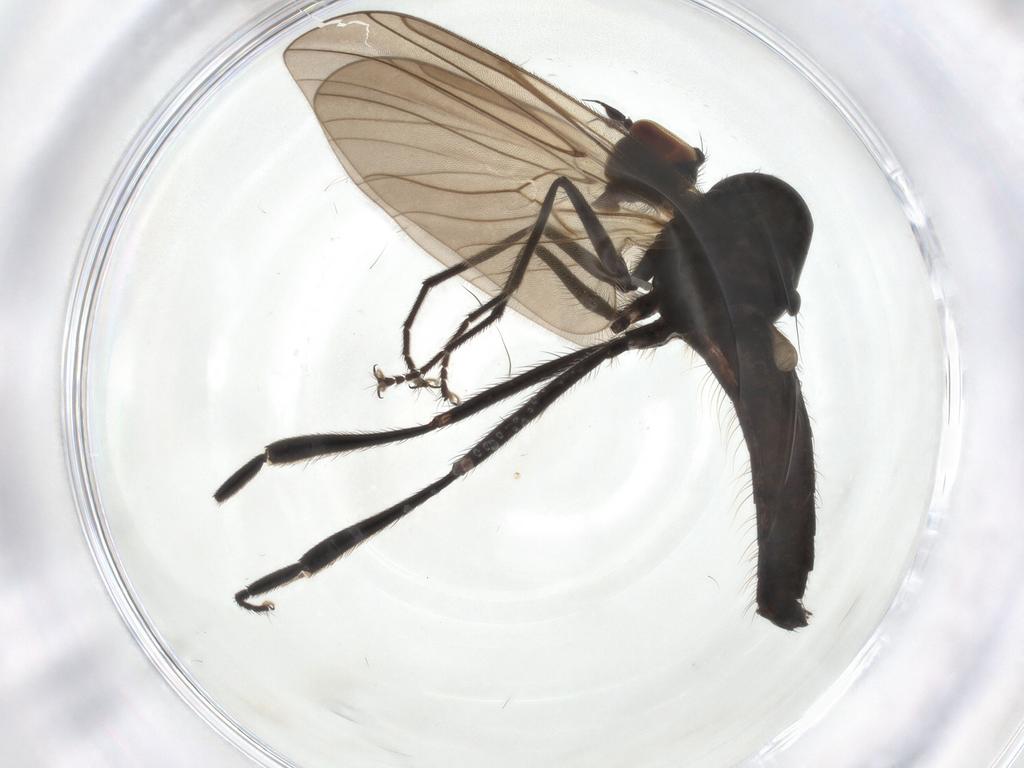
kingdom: Animalia
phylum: Arthropoda
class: Insecta
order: Diptera
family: Hybotidae
